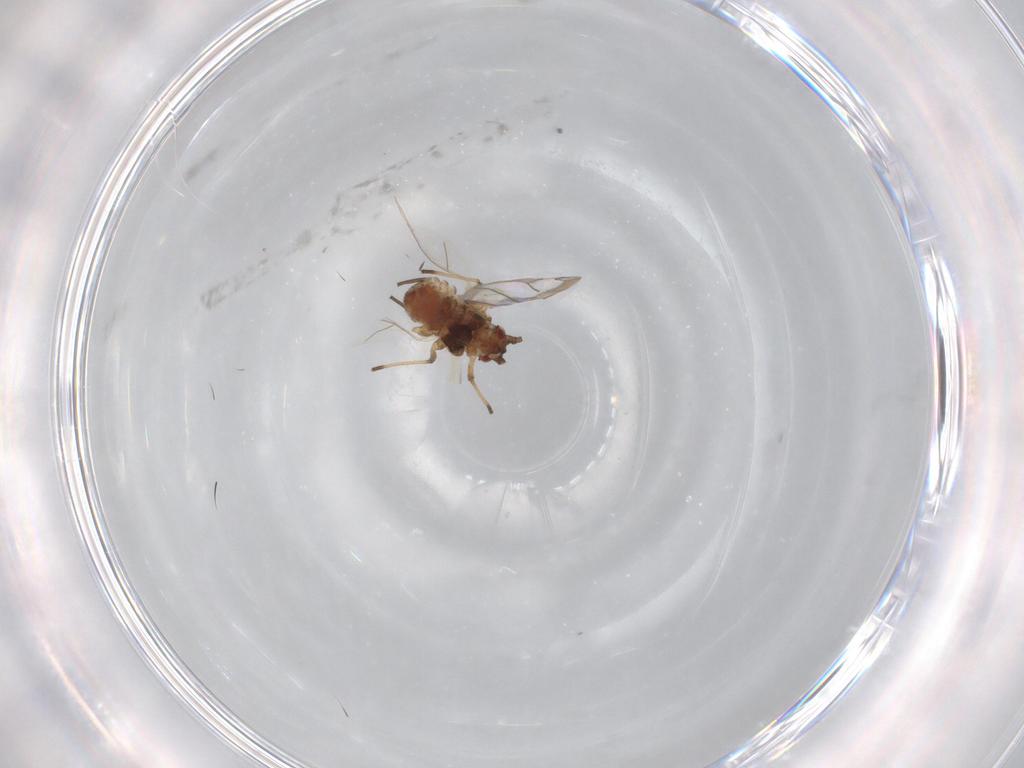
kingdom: Animalia
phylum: Arthropoda
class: Insecta
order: Hemiptera
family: Aphididae
